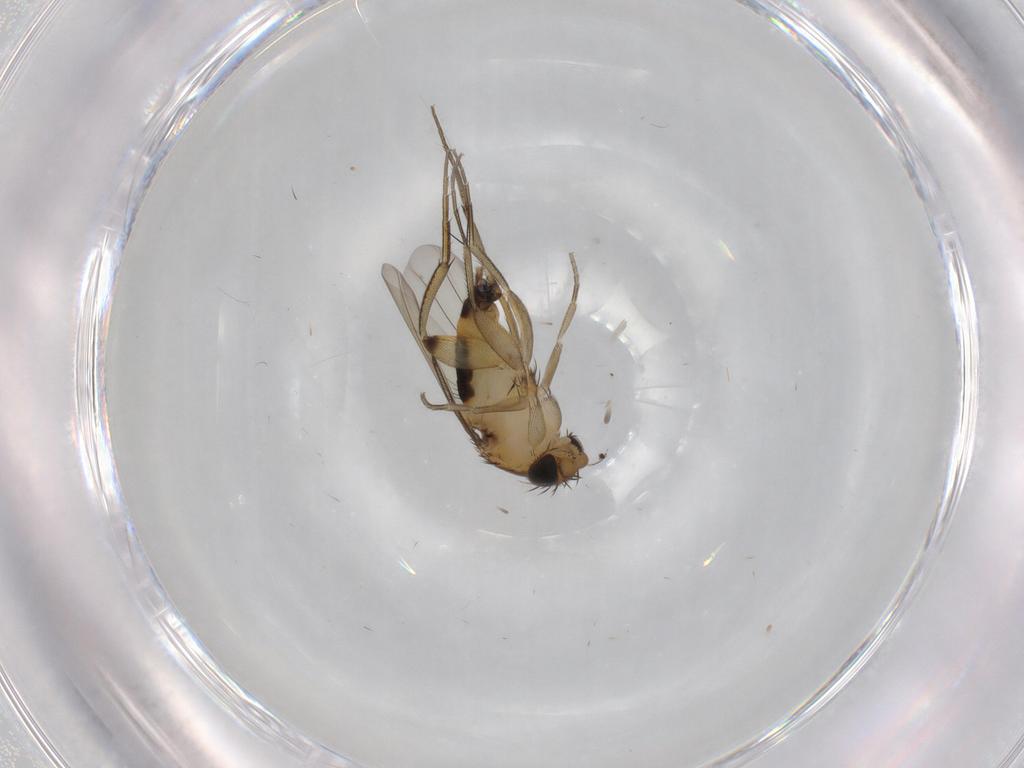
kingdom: Animalia
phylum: Arthropoda
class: Insecta
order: Diptera
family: Phoridae
